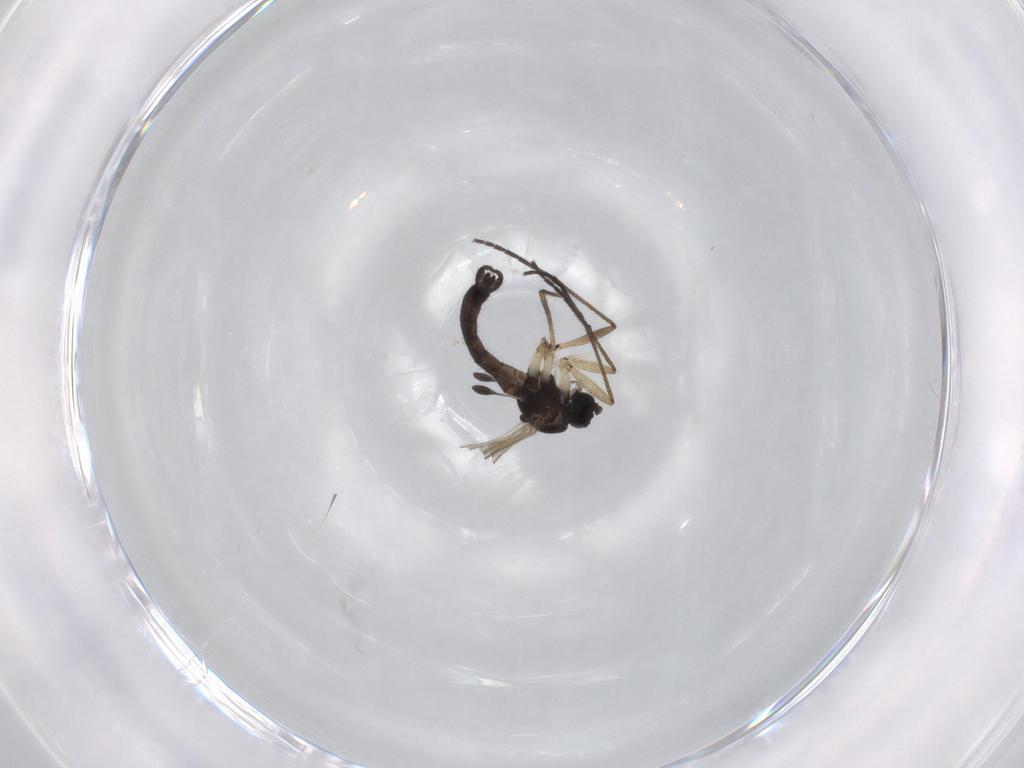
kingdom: Animalia
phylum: Arthropoda
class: Insecta
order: Diptera
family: Sciaridae
